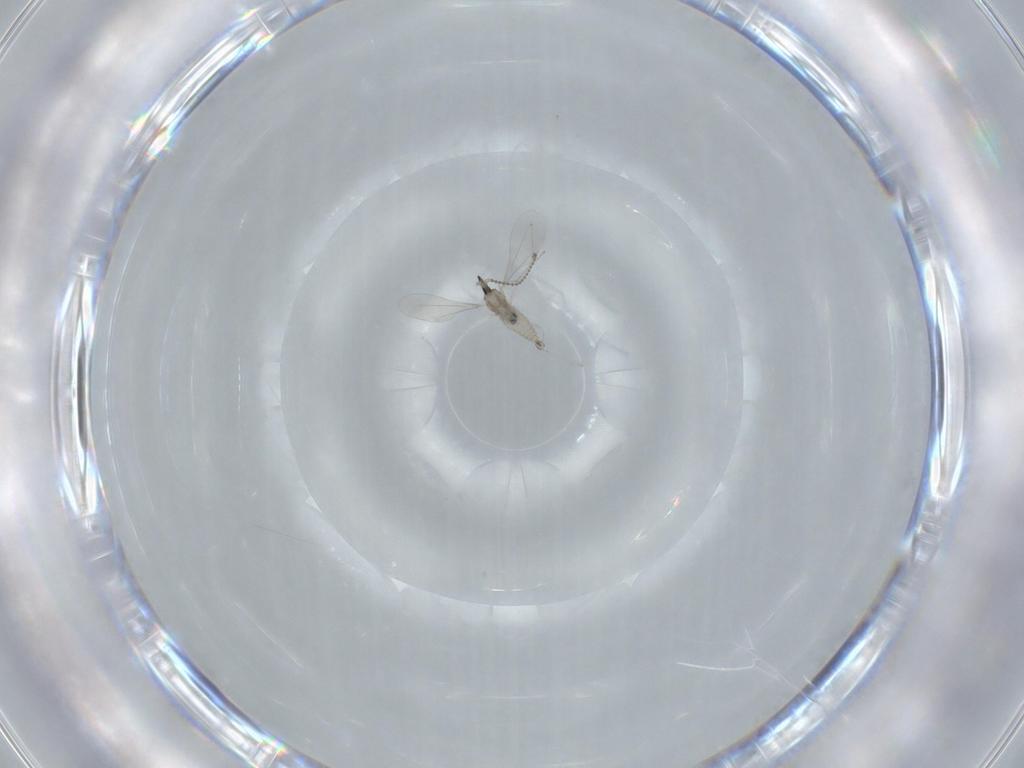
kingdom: Animalia
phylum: Arthropoda
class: Insecta
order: Diptera
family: Cecidomyiidae
